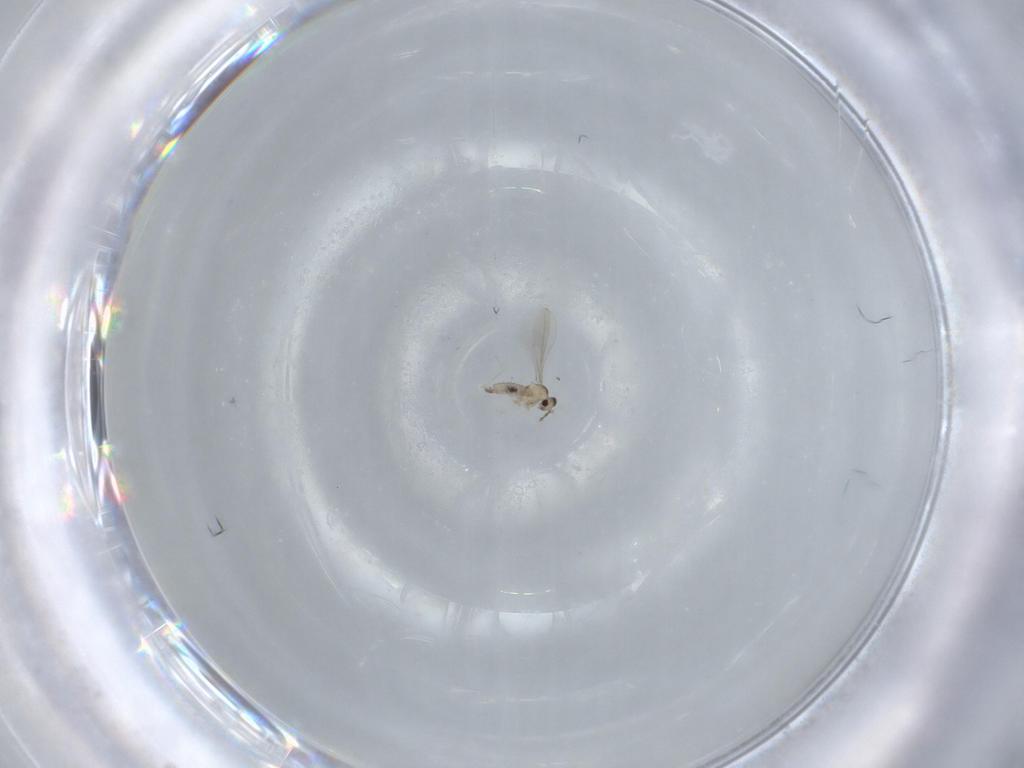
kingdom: Animalia
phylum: Arthropoda
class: Insecta
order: Diptera
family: Cecidomyiidae
